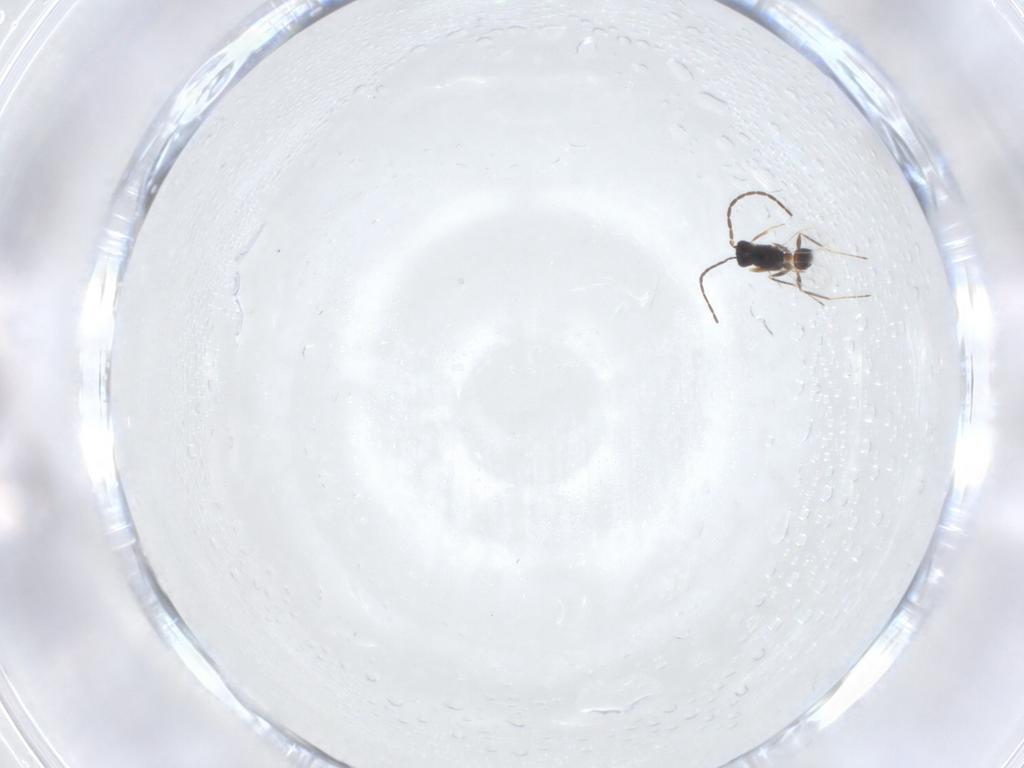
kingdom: Animalia
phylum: Arthropoda
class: Insecta
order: Hymenoptera
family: Mymaridae
